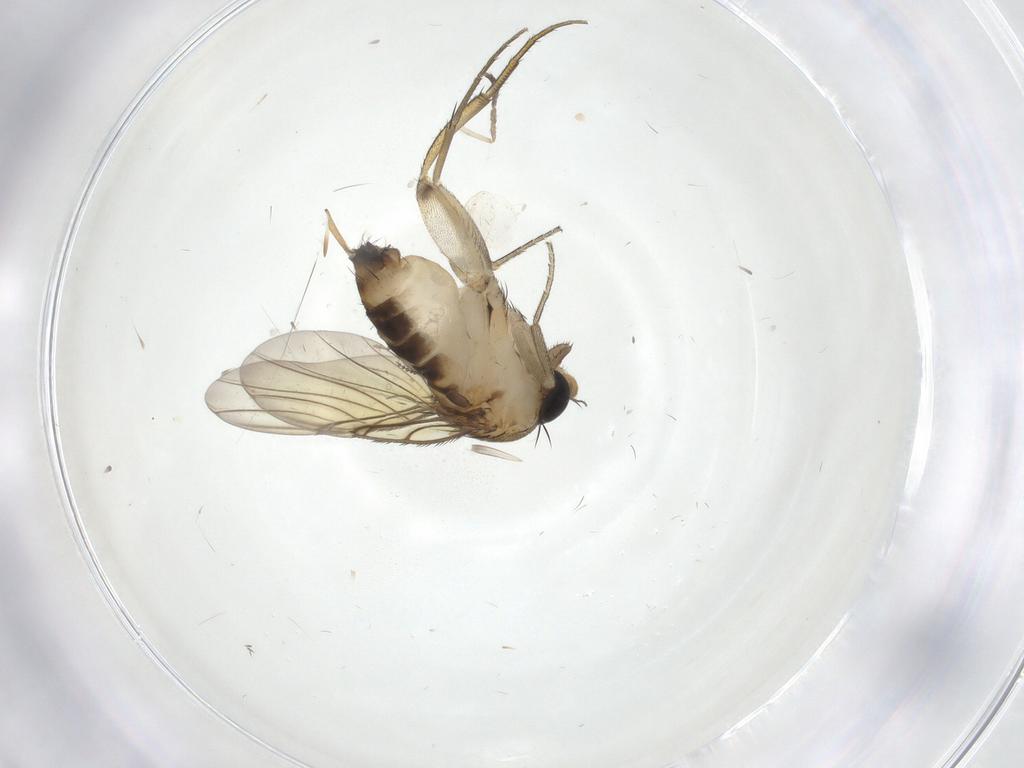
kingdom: Animalia
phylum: Arthropoda
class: Insecta
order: Diptera
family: Phoridae
